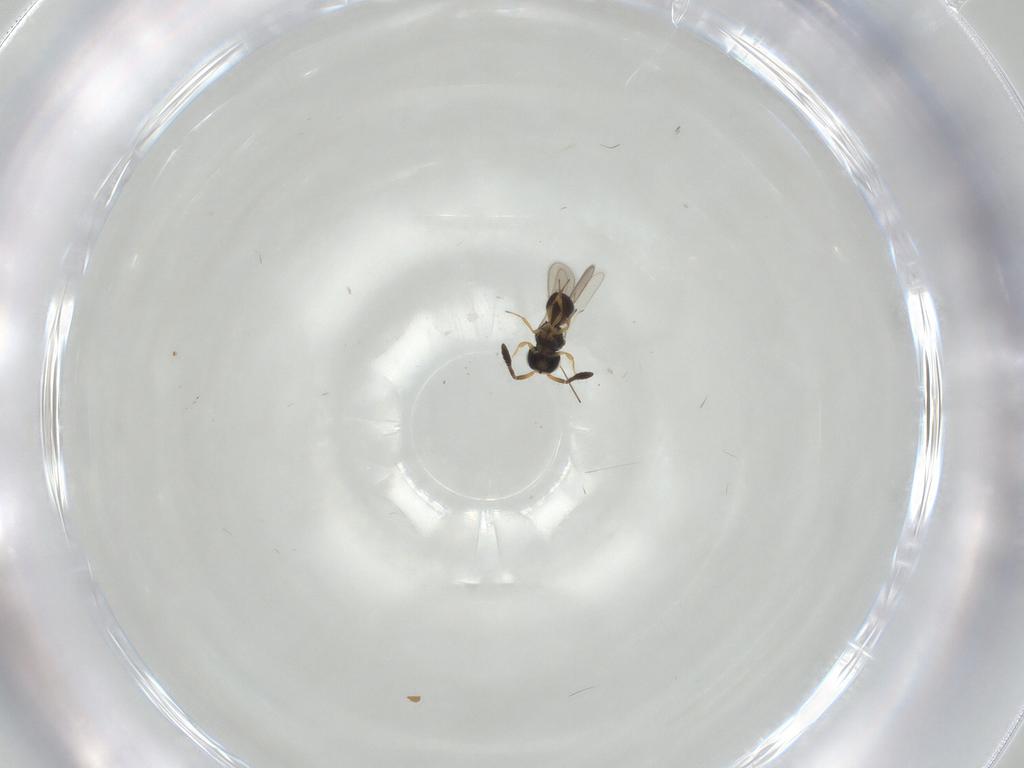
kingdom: Animalia
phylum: Arthropoda
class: Insecta
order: Hymenoptera
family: Scelionidae
